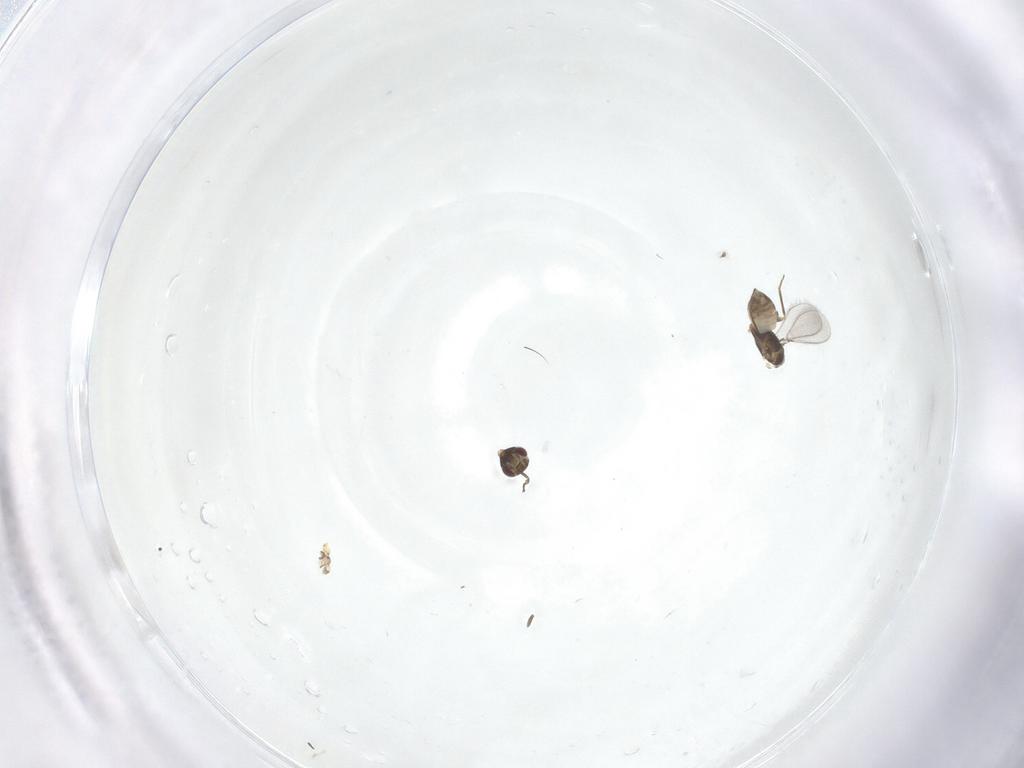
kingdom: Animalia
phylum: Arthropoda
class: Insecta
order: Hymenoptera
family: Mymaridae
